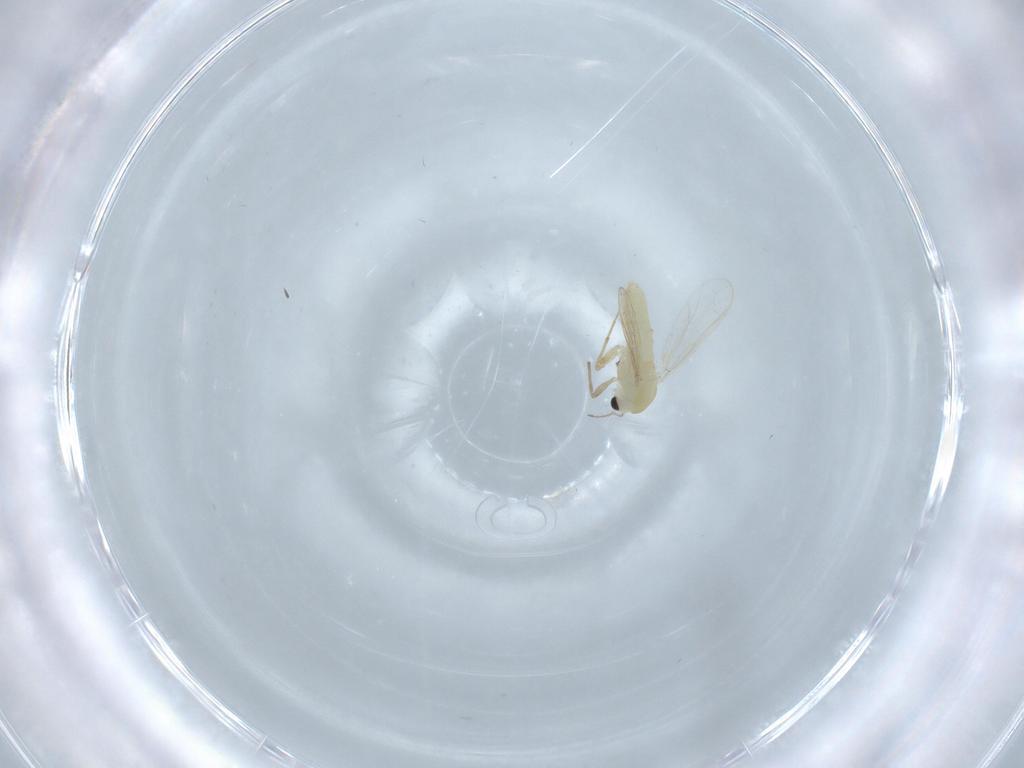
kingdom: Animalia
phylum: Arthropoda
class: Insecta
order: Diptera
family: Chironomidae
